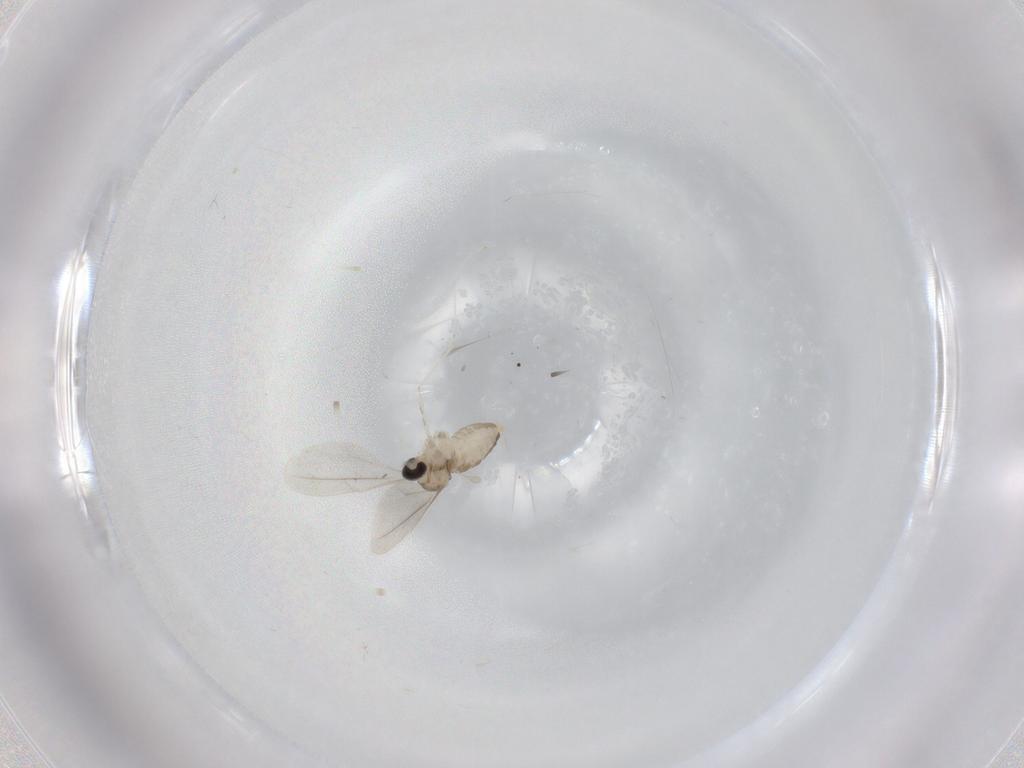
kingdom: Animalia
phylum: Arthropoda
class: Insecta
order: Diptera
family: Cecidomyiidae
